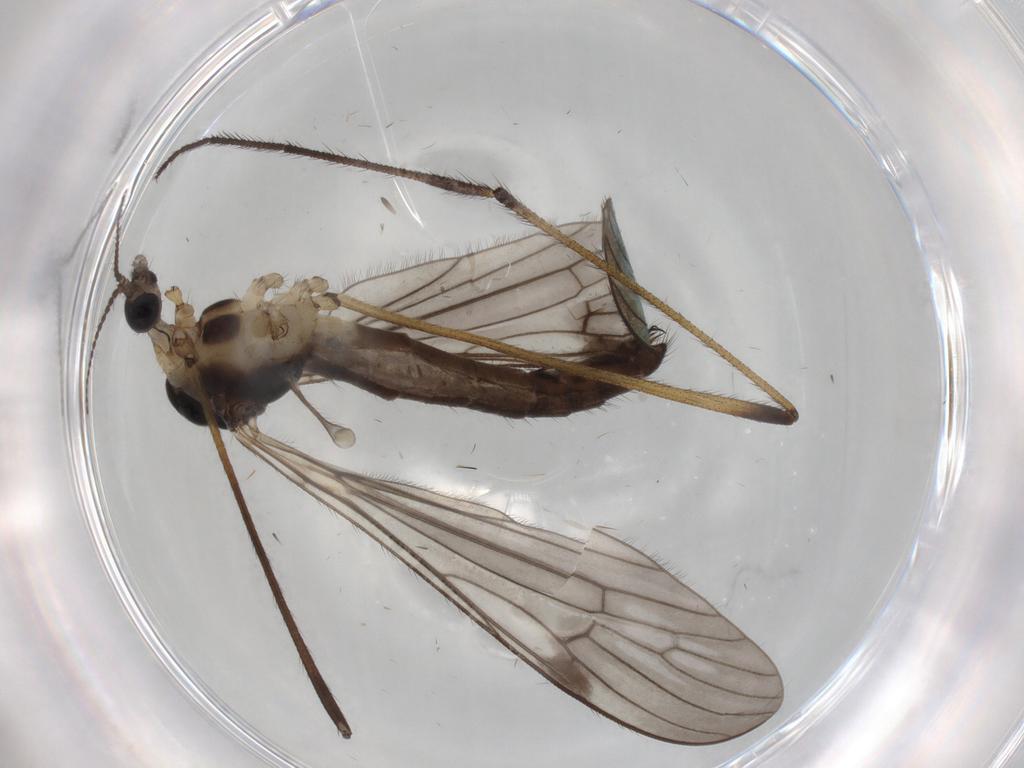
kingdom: Animalia
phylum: Arthropoda
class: Insecta
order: Diptera
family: Limoniidae
